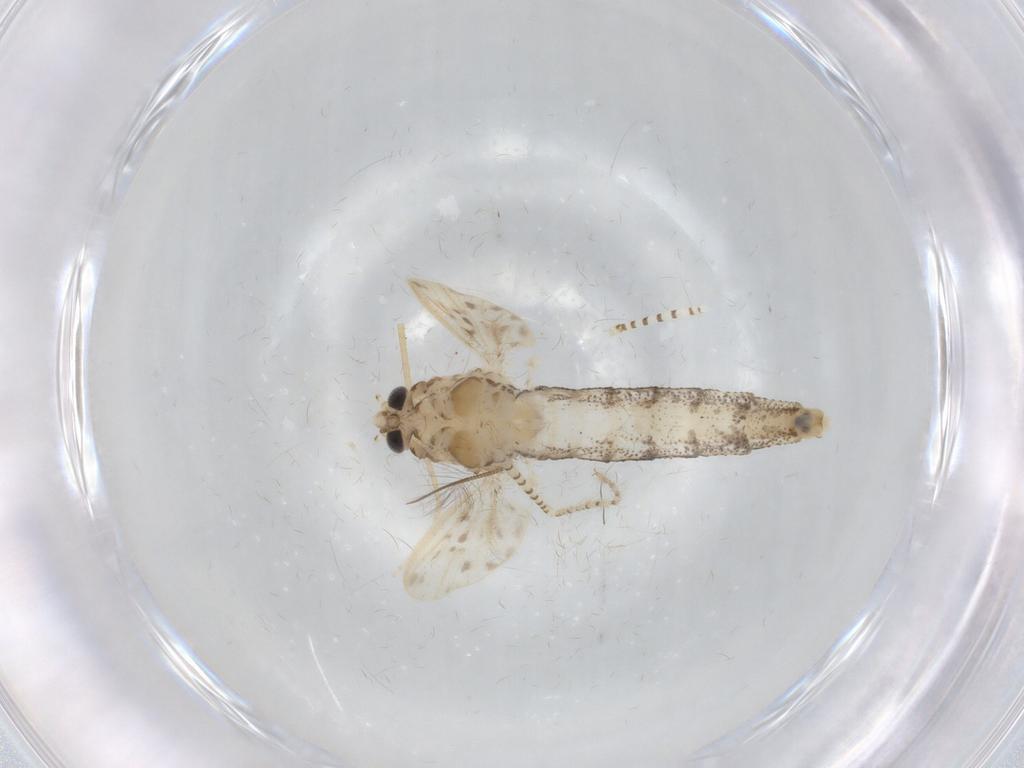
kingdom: Animalia
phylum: Arthropoda
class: Insecta
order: Diptera
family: Chaoboridae
